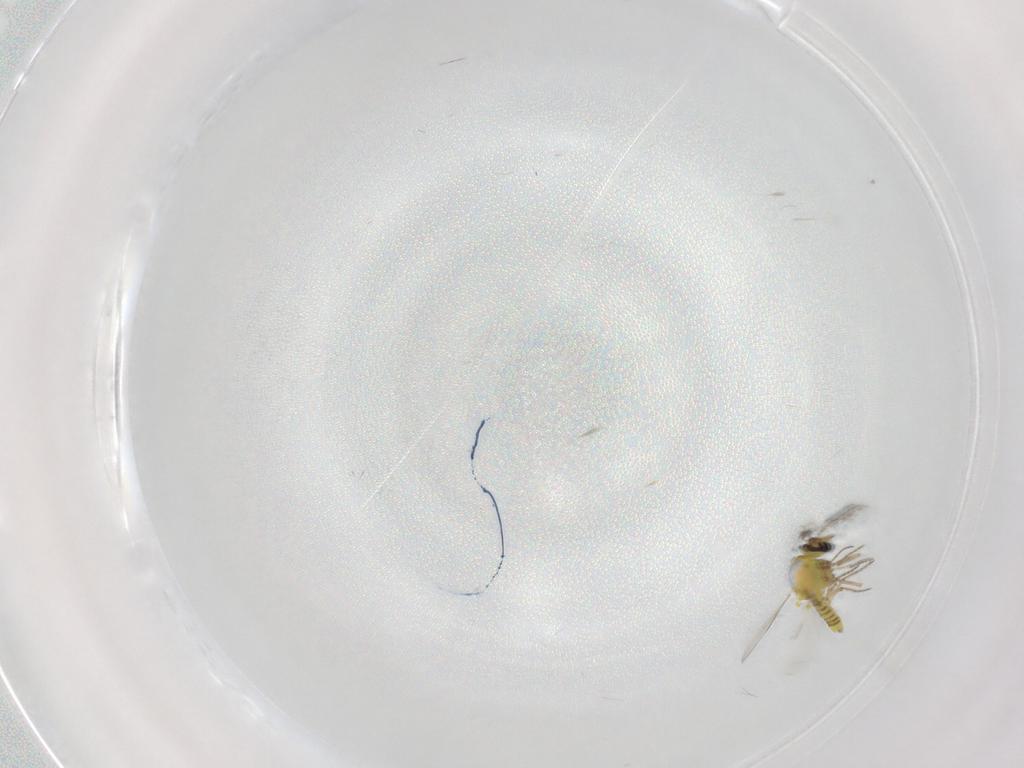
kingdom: Animalia
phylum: Arthropoda
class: Insecta
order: Diptera
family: Ceratopogonidae
